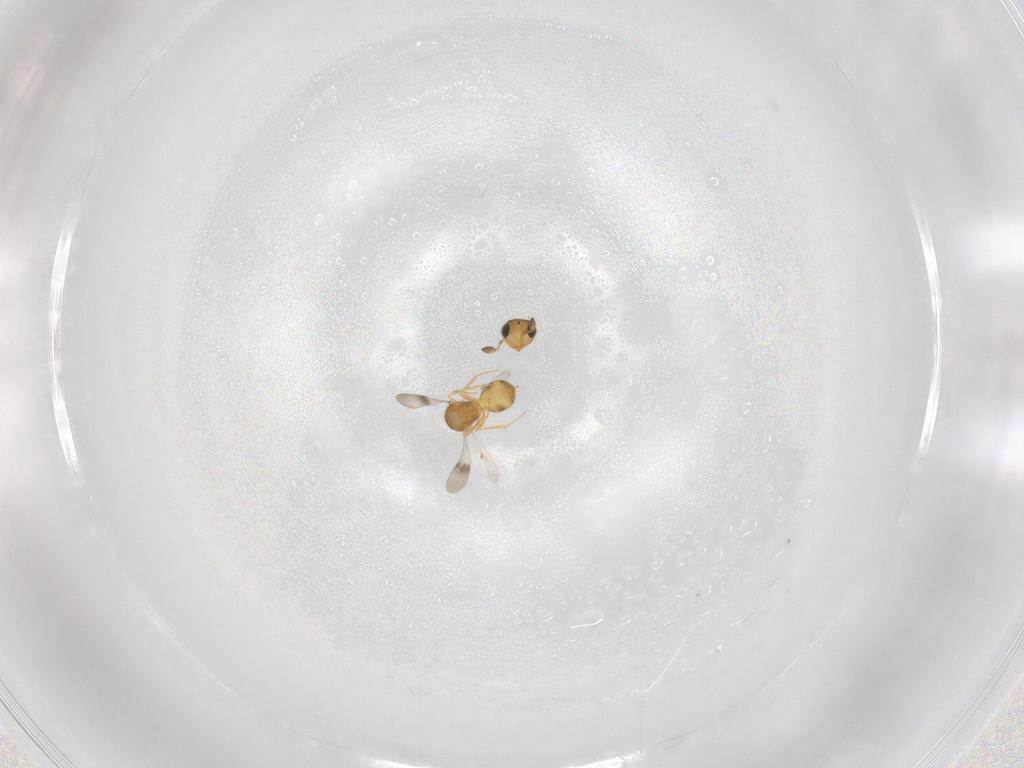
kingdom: Animalia
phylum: Arthropoda
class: Insecta
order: Hymenoptera
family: Scelionidae
